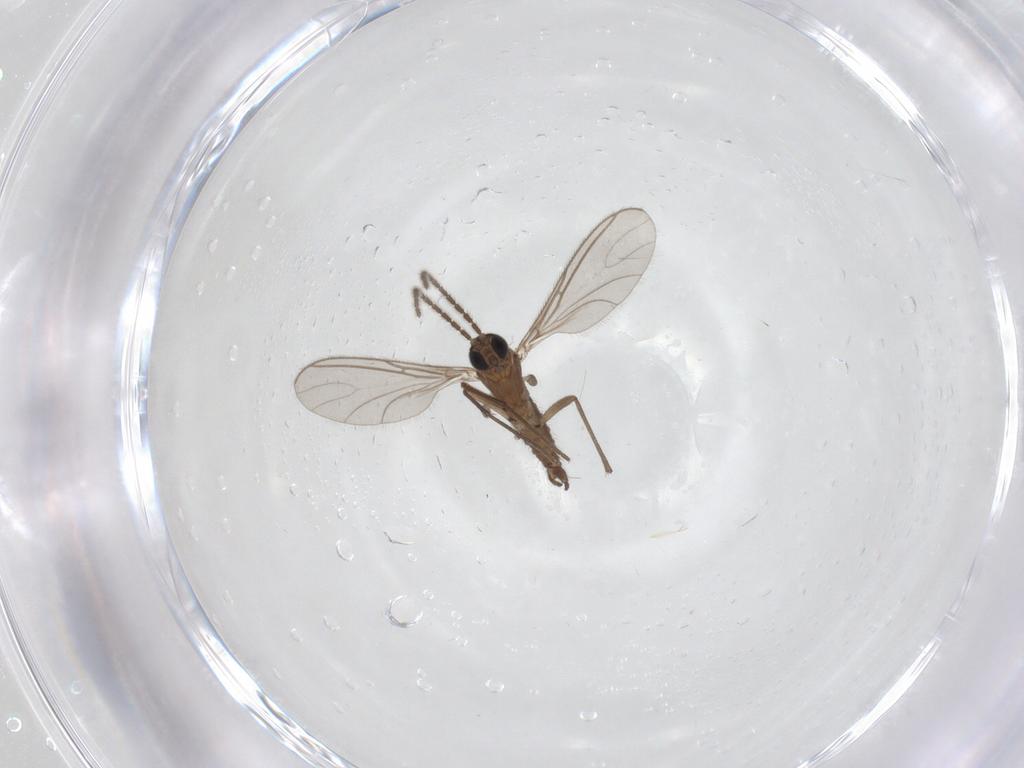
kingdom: Animalia
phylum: Arthropoda
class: Insecta
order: Diptera
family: Sciaridae
